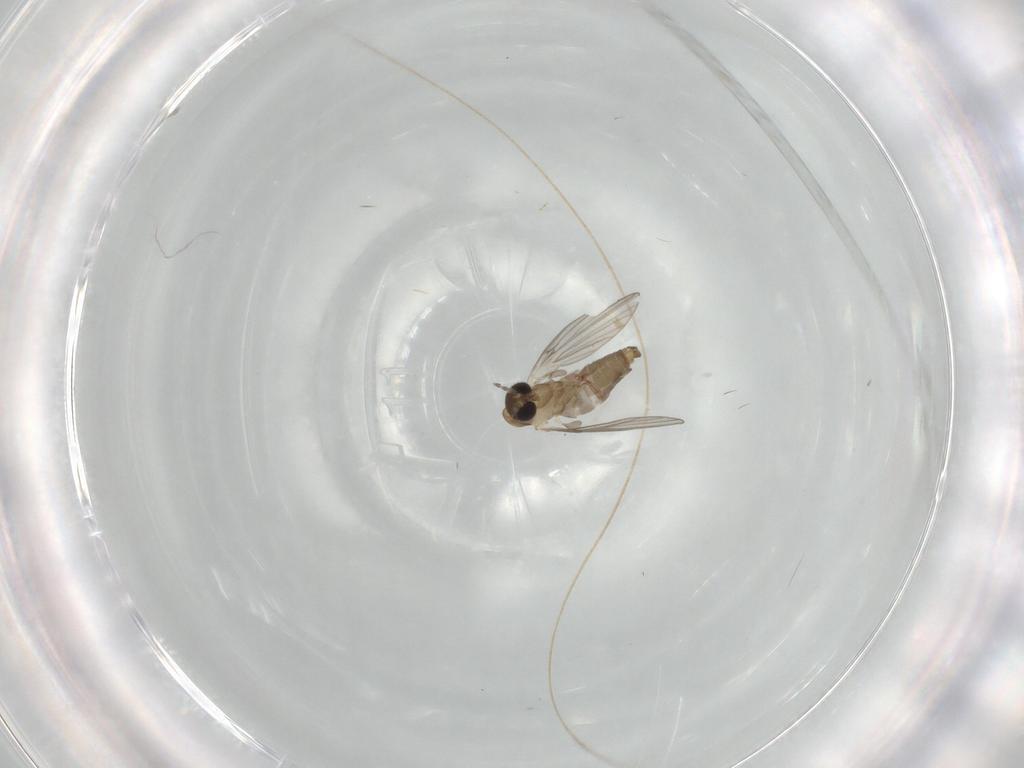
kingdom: Animalia
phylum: Arthropoda
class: Insecta
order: Diptera
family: Psychodidae
